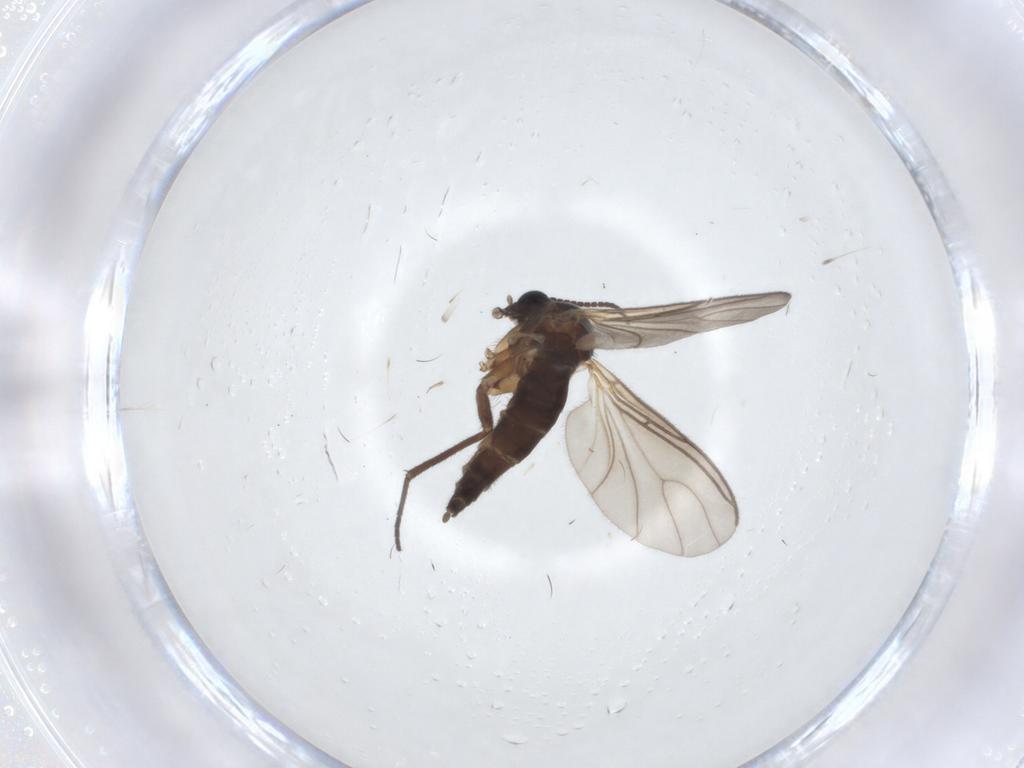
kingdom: Animalia
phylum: Arthropoda
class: Insecta
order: Diptera
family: Sciaridae
